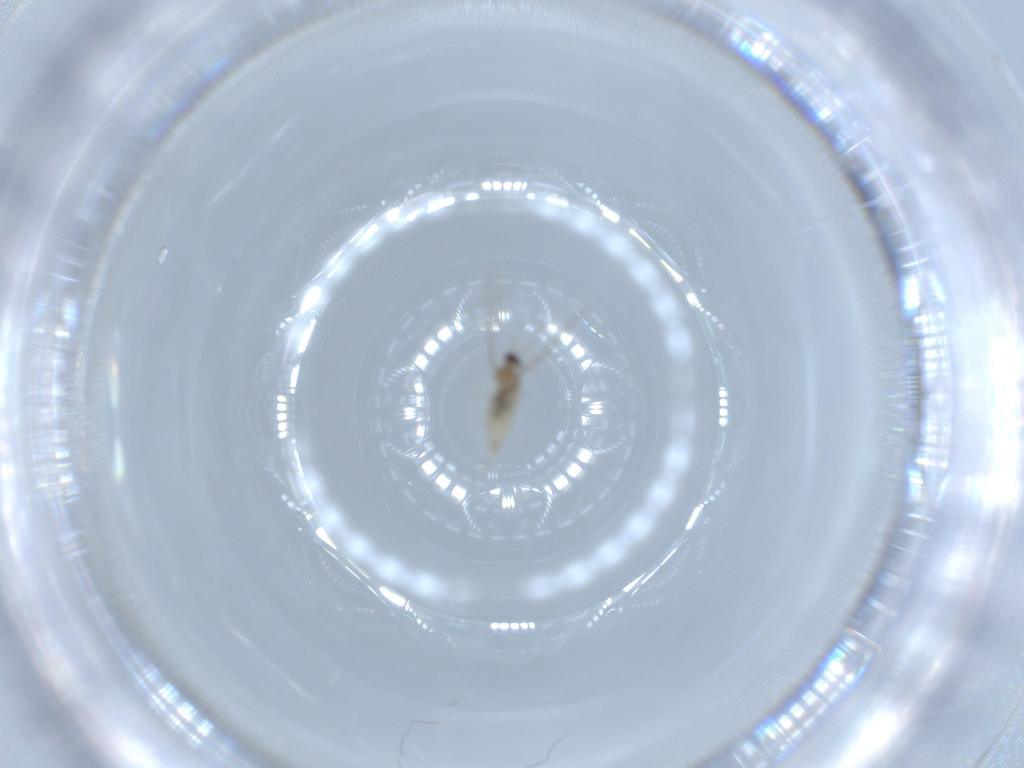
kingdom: Animalia
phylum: Arthropoda
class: Insecta
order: Diptera
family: Cecidomyiidae
